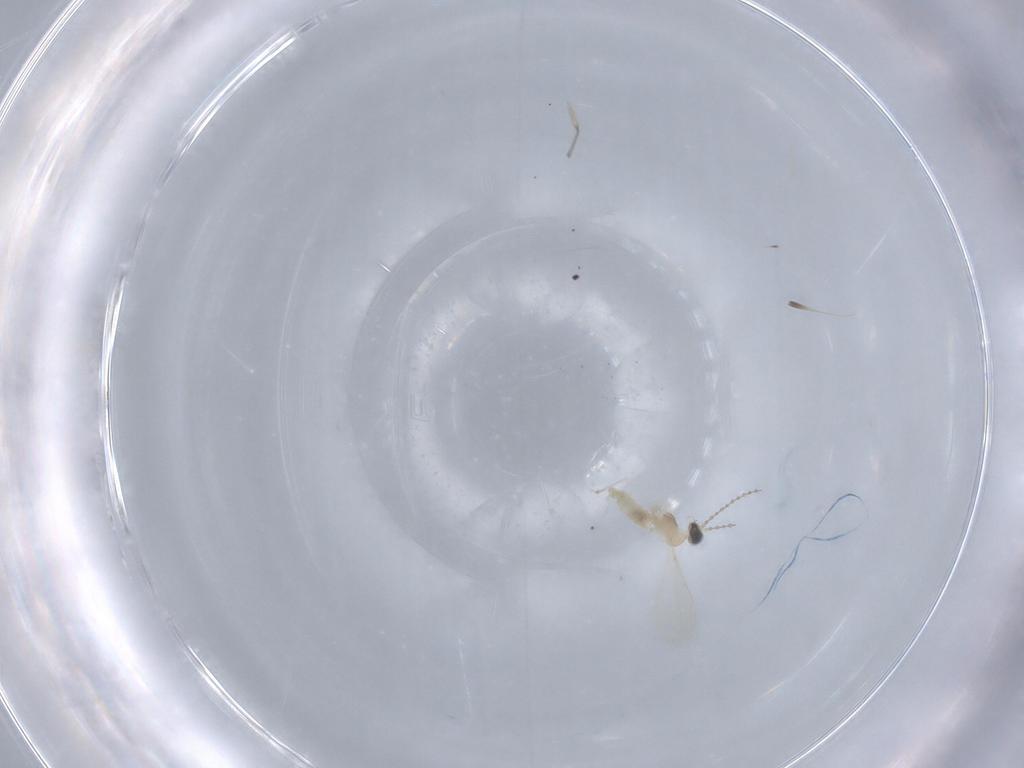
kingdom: Animalia
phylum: Arthropoda
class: Insecta
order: Diptera
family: Cecidomyiidae
